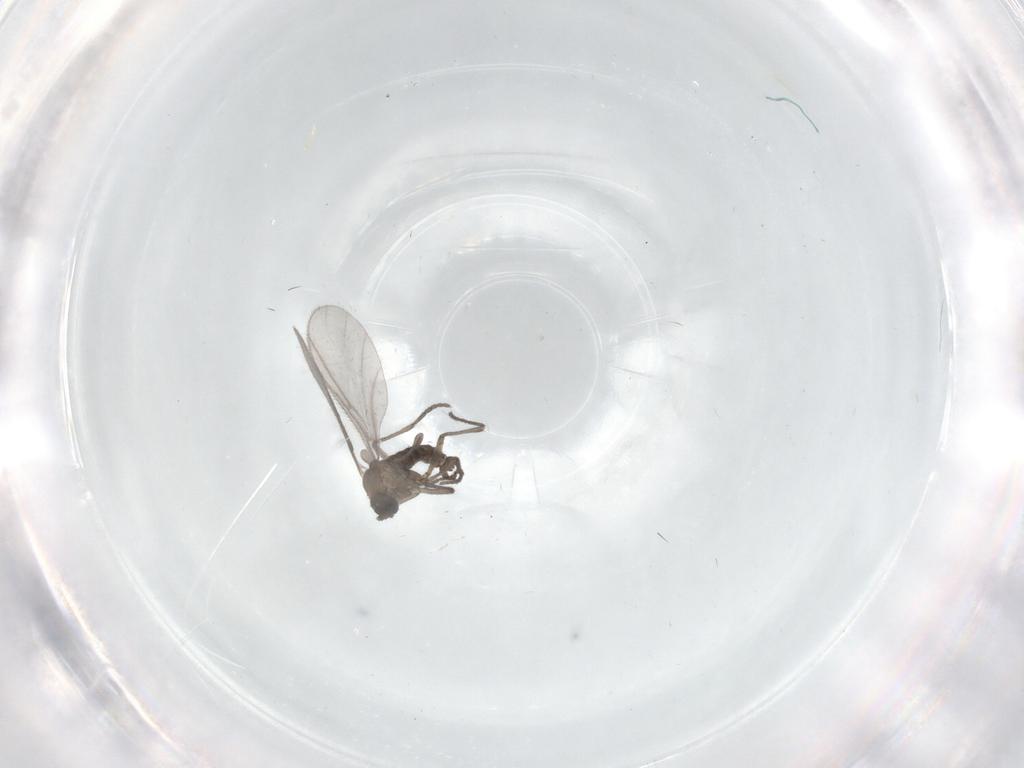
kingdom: Animalia
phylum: Arthropoda
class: Insecta
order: Diptera
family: Sciaridae
